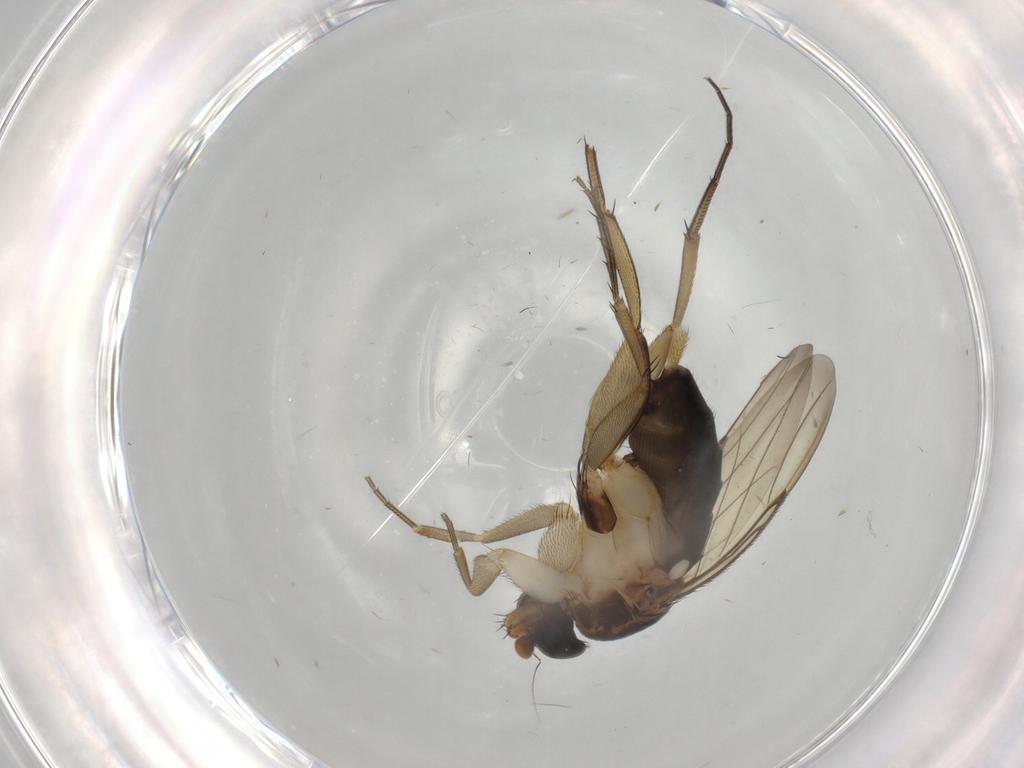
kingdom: Animalia
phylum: Arthropoda
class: Insecta
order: Diptera
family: Phoridae
